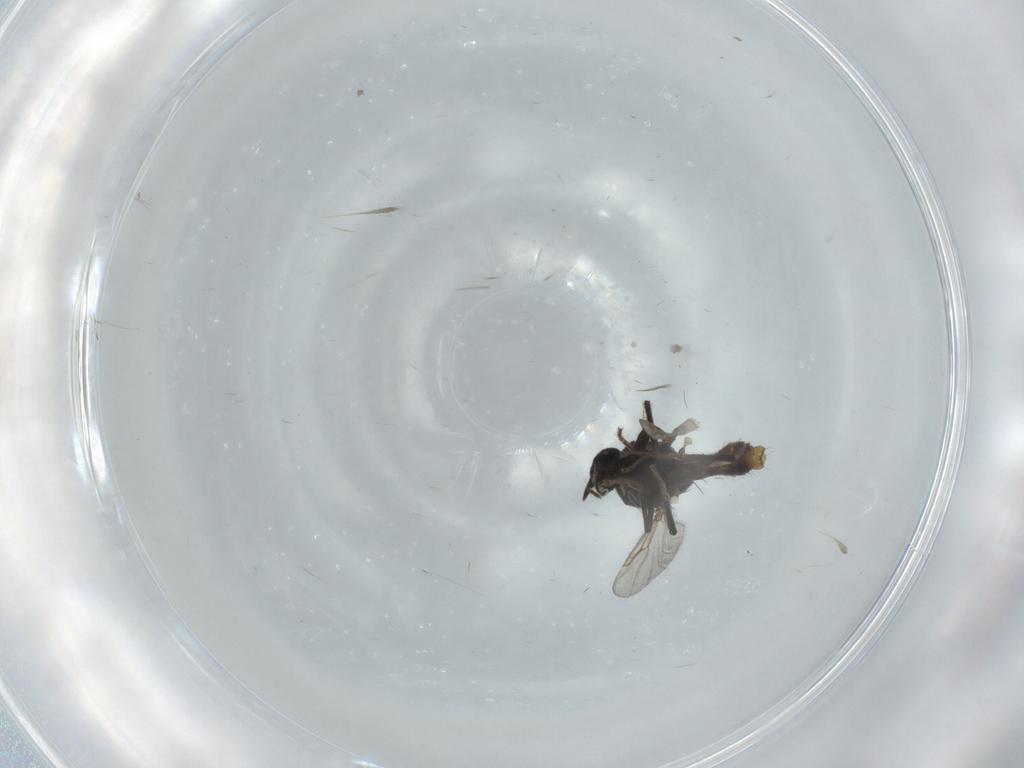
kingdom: Animalia
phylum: Arthropoda
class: Insecta
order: Diptera
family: Ceratopogonidae
